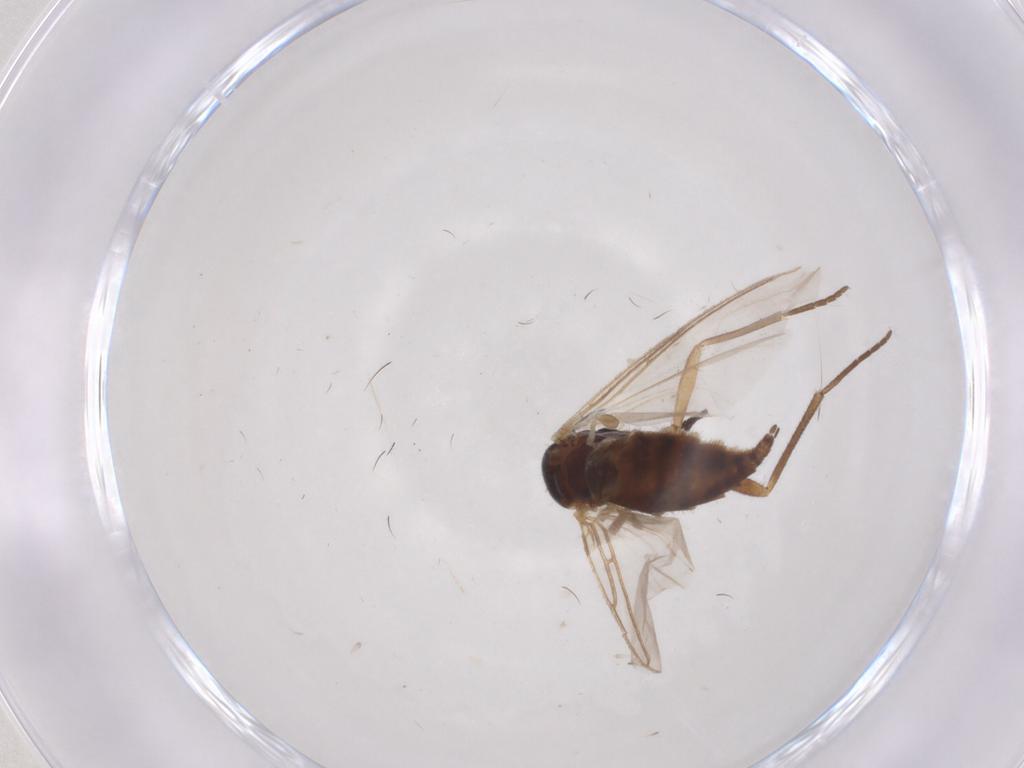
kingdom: Animalia
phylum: Arthropoda
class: Insecta
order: Diptera
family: Sciaridae
